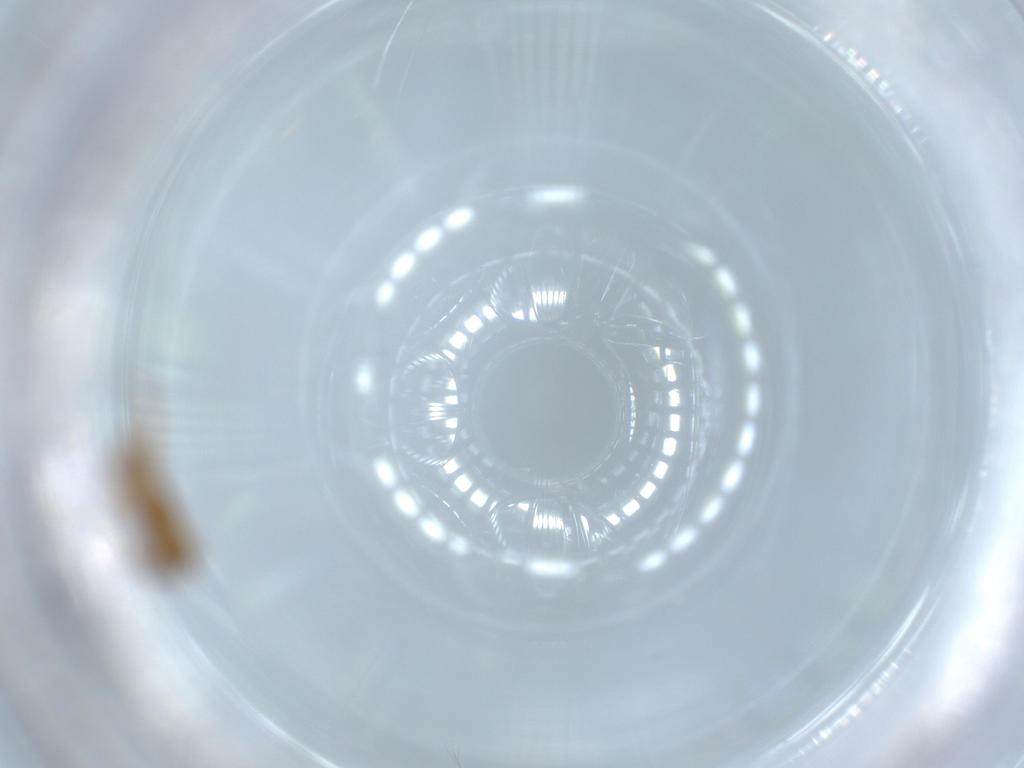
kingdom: Animalia
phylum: Arthropoda
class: Insecta
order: Hymenoptera
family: Formicidae
